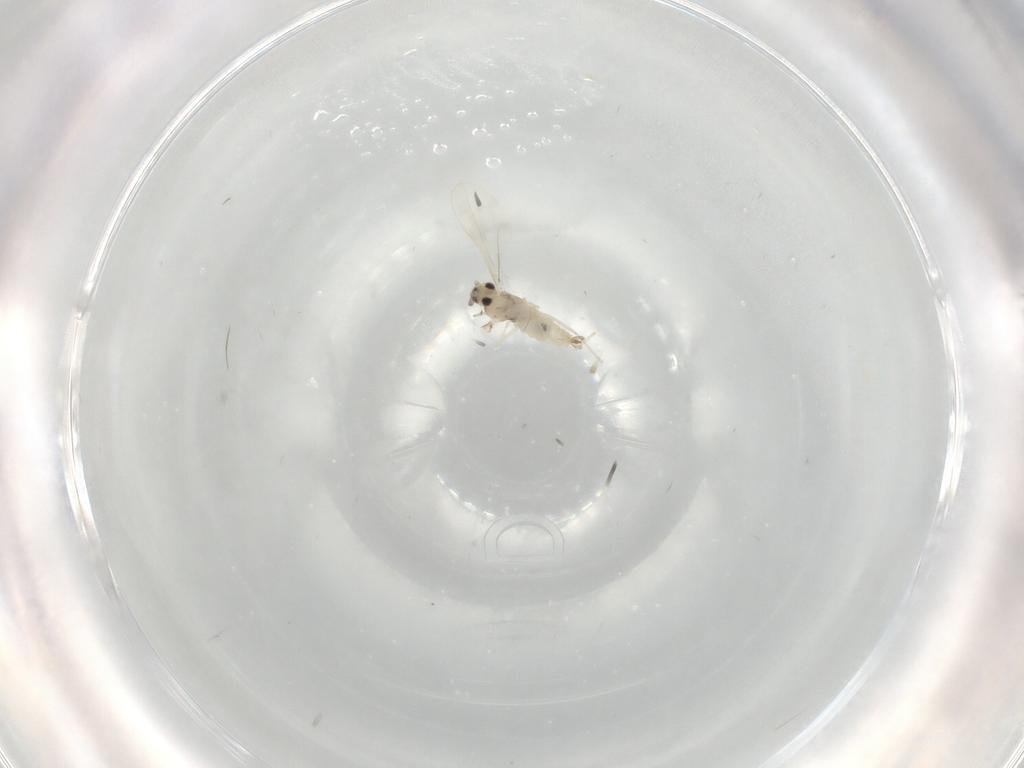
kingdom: Animalia
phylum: Arthropoda
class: Insecta
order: Diptera
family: Cecidomyiidae
